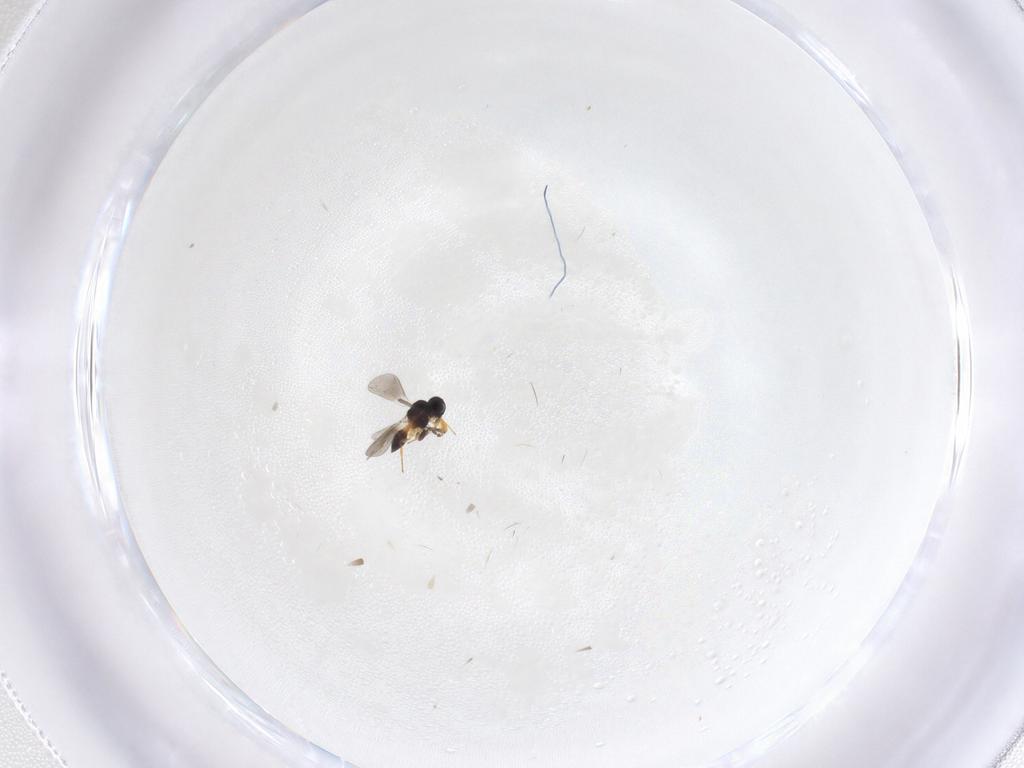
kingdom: Animalia
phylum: Arthropoda
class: Insecta
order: Hymenoptera
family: Platygastridae
